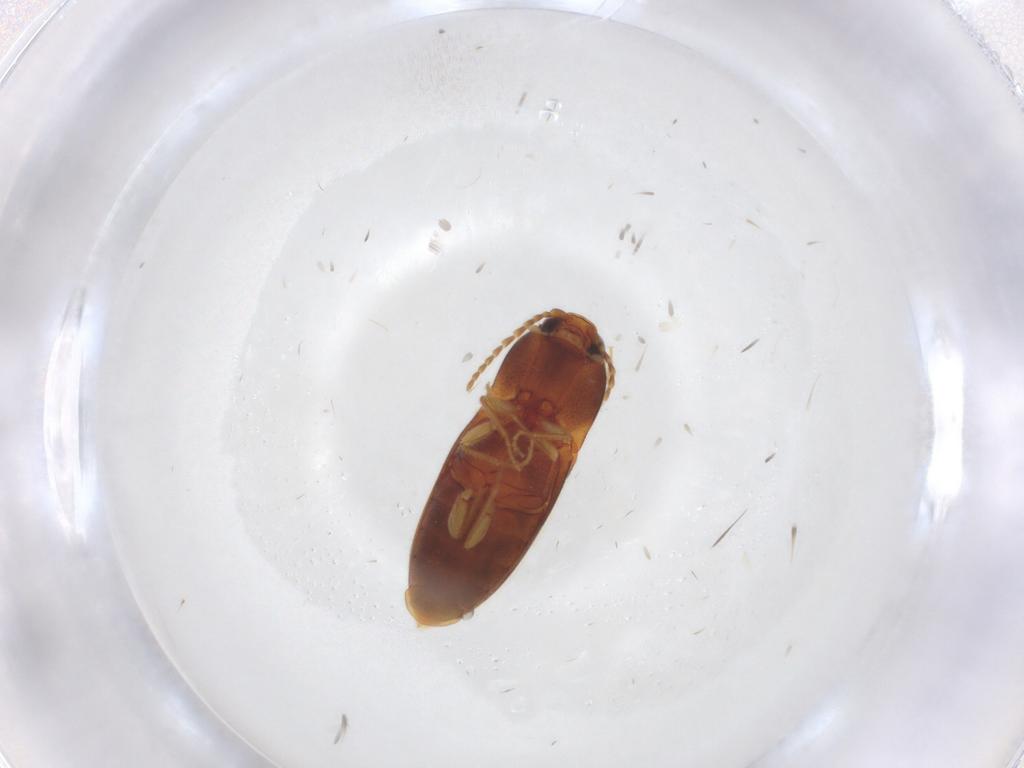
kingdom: Animalia
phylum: Arthropoda
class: Insecta
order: Coleoptera
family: Elateridae
